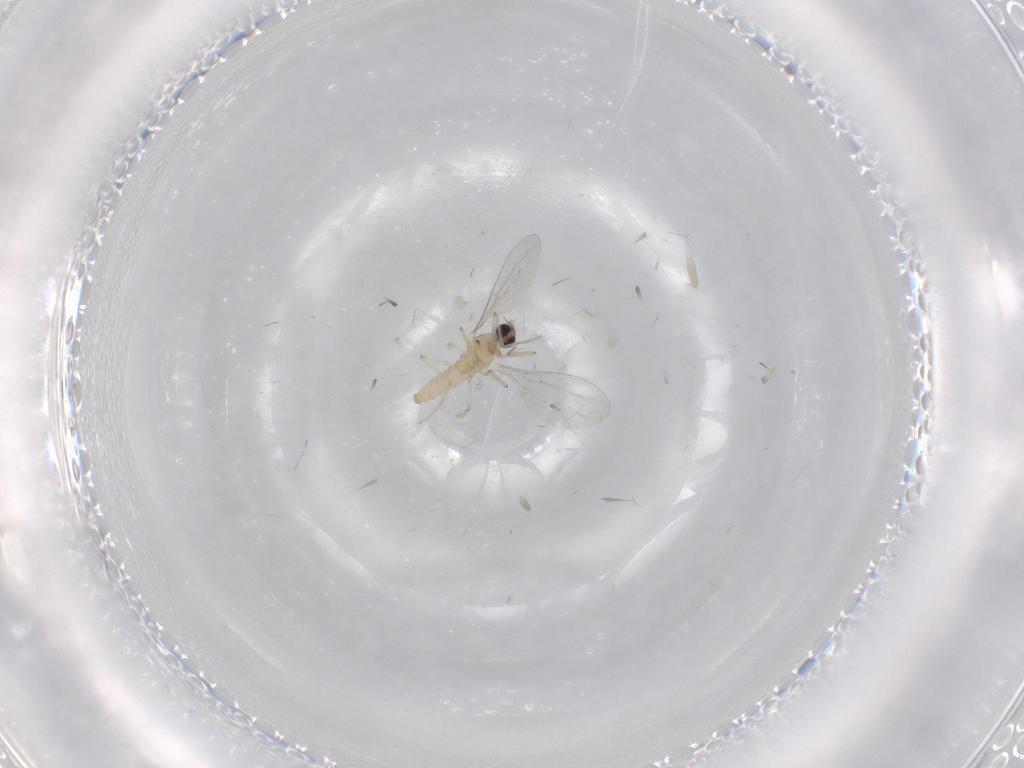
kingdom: Animalia
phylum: Arthropoda
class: Insecta
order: Diptera
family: Cecidomyiidae
